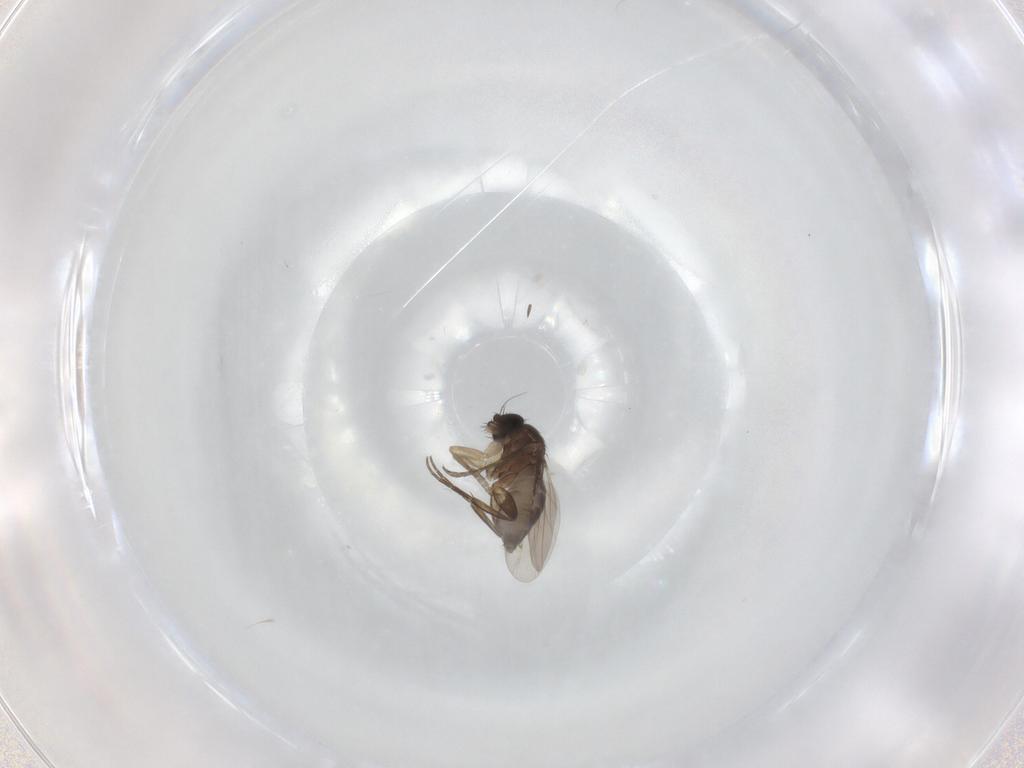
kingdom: Animalia
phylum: Arthropoda
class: Insecta
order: Diptera
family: Phoridae
